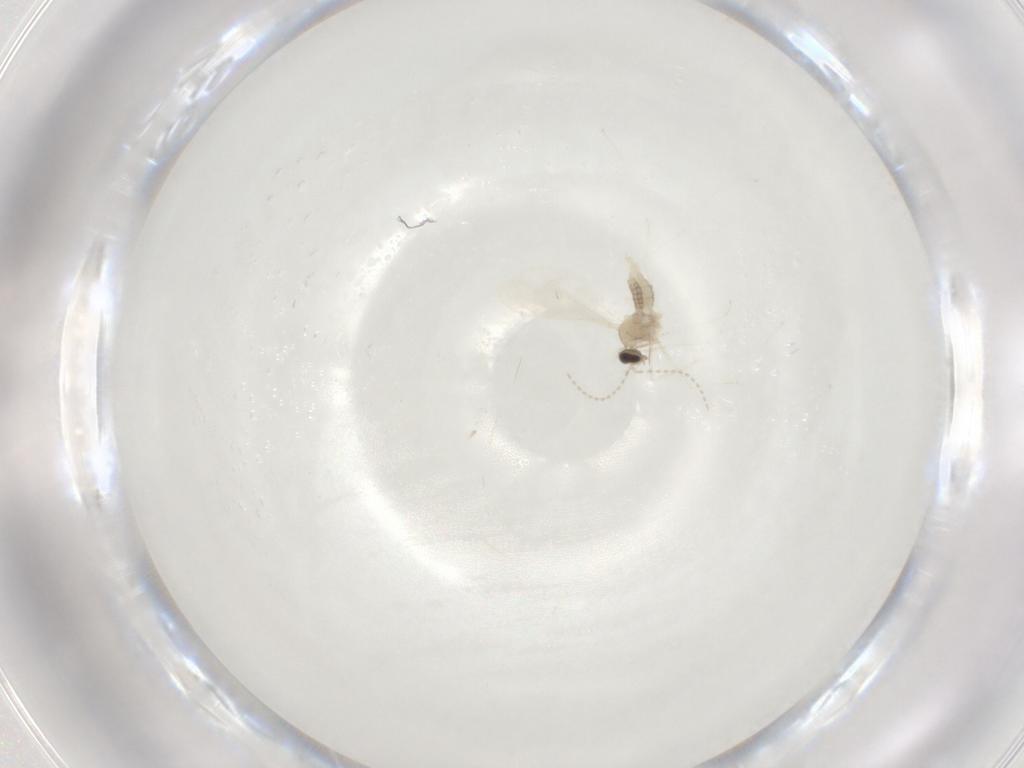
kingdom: Animalia
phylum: Arthropoda
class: Insecta
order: Diptera
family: Cecidomyiidae
